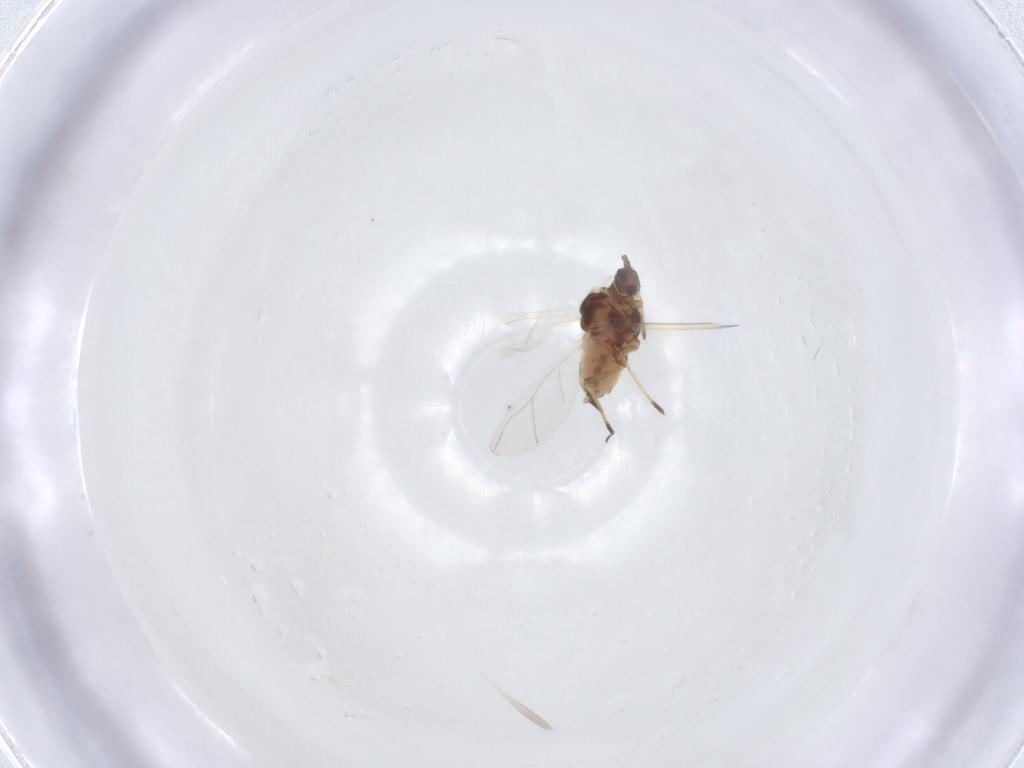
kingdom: Animalia
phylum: Arthropoda
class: Insecta
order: Hemiptera
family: Aphididae
